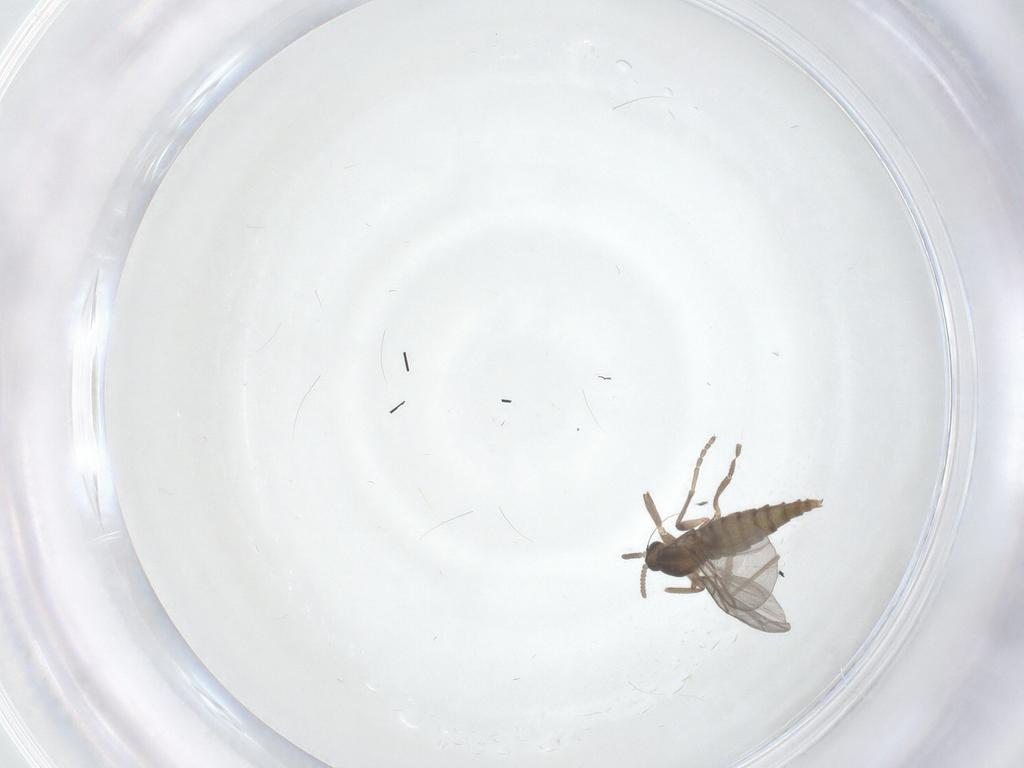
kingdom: Animalia
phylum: Arthropoda
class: Insecta
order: Diptera
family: Cecidomyiidae
